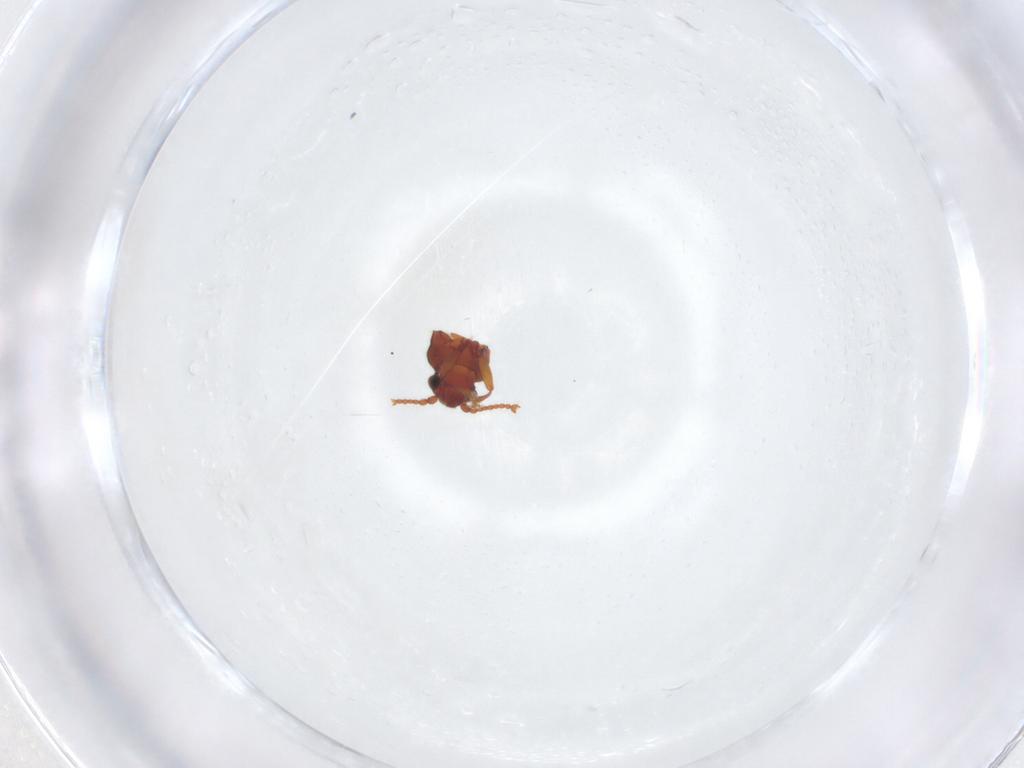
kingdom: Animalia
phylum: Arthropoda
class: Insecta
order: Coleoptera
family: Cryptophagidae
